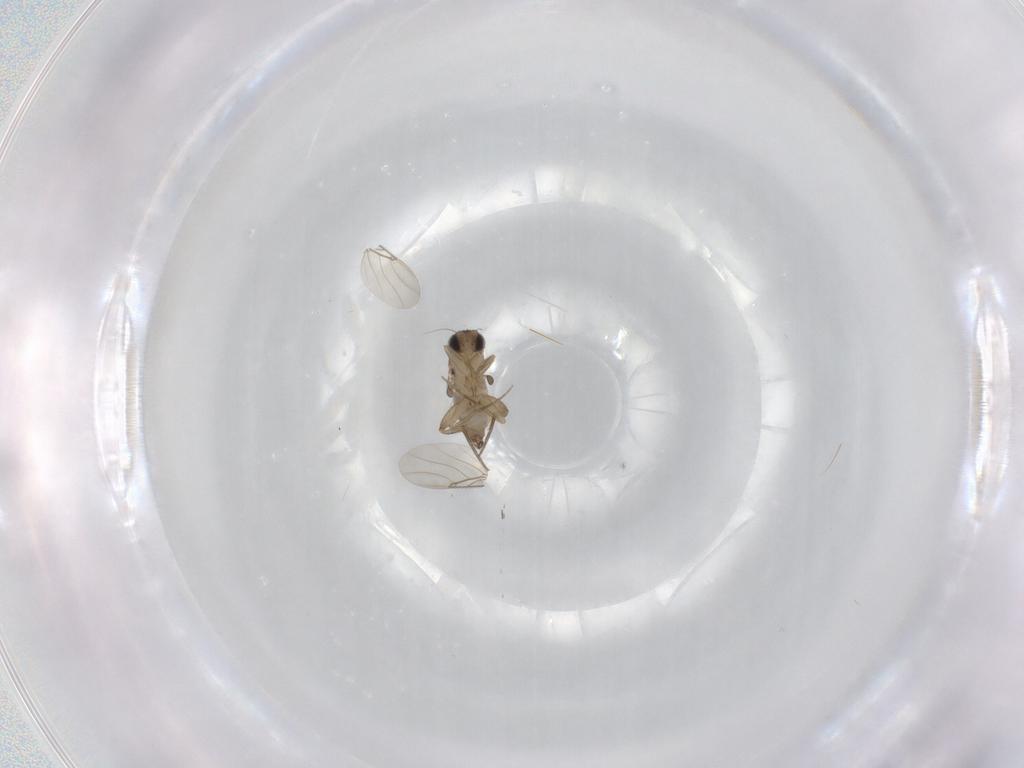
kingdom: Animalia
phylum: Arthropoda
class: Insecta
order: Diptera
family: Phoridae
